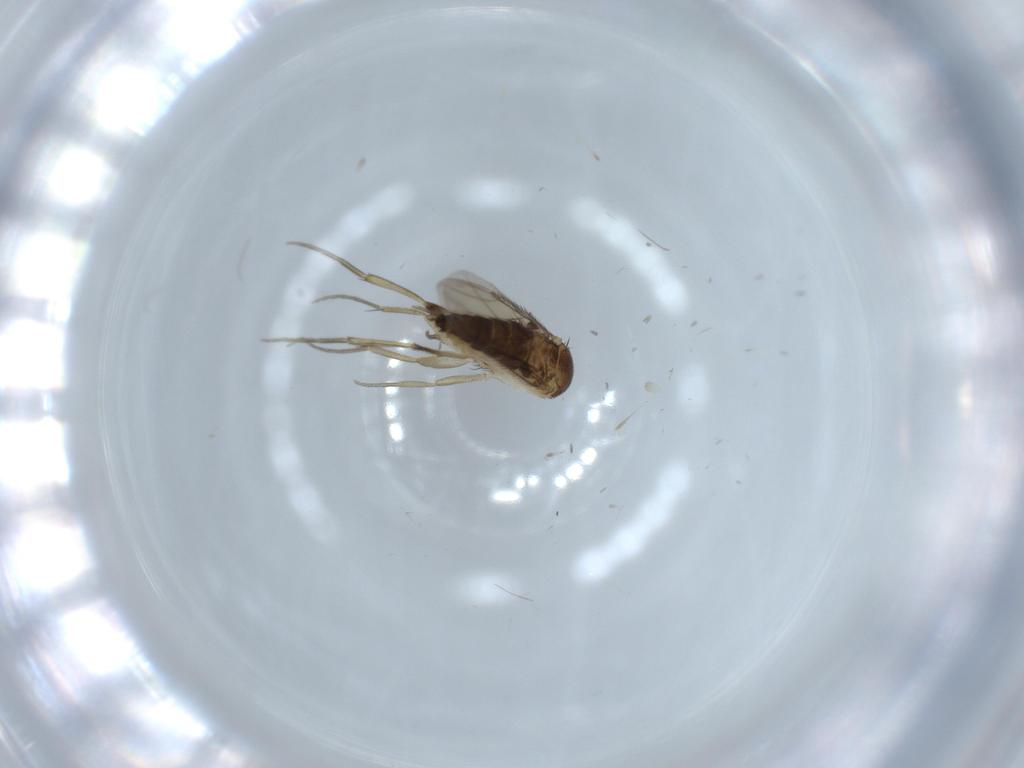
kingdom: Animalia
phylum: Arthropoda
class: Insecta
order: Diptera
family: Phoridae
